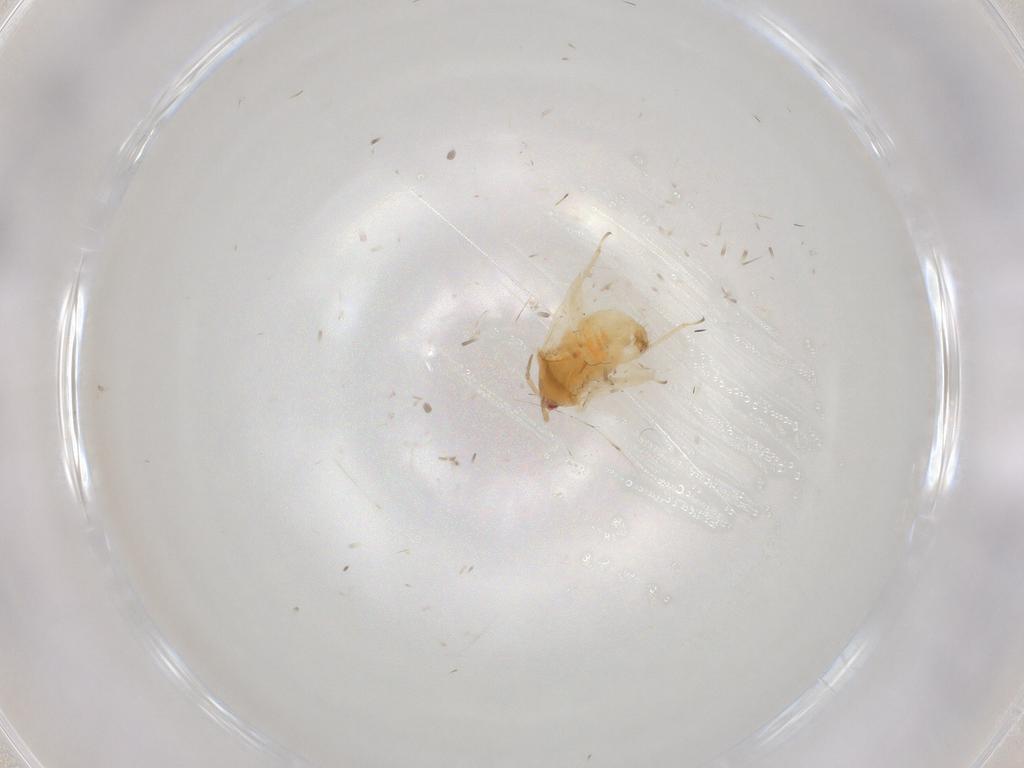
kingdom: Animalia
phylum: Arthropoda
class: Insecta
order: Hemiptera
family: Anthocoridae
